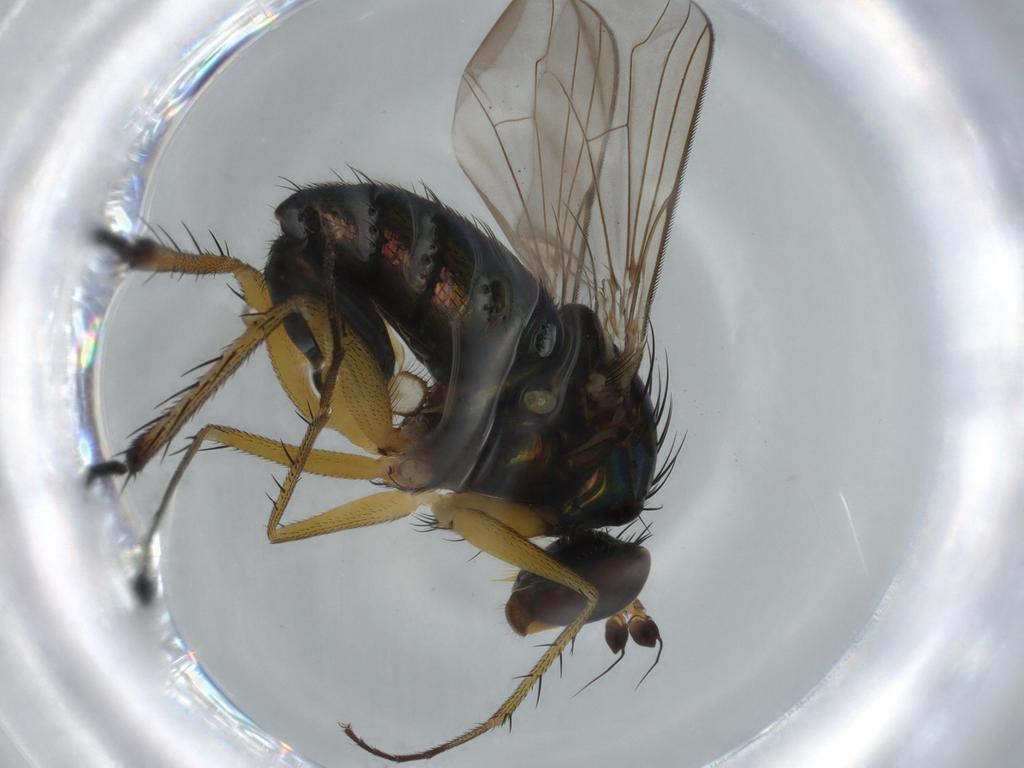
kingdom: Animalia
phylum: Arthropoda
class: Insecta
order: Diptera
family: Dolichopodidae
